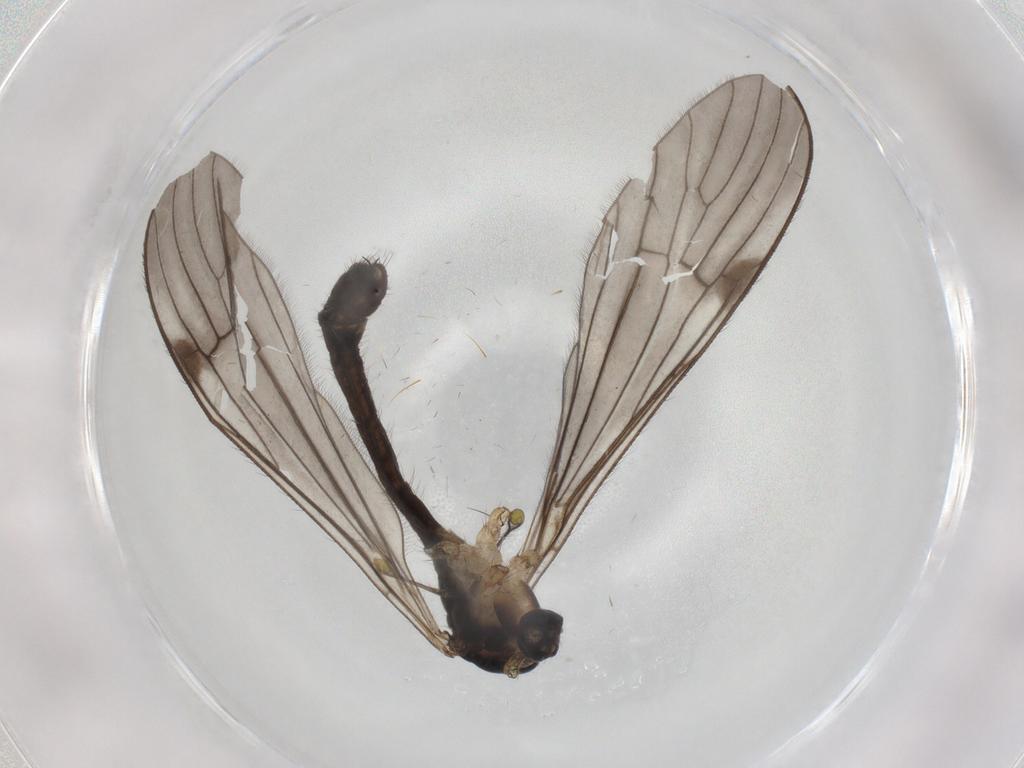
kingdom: Animalia
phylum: Arthropoda
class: Insecta
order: Diptera
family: Limoniidae
